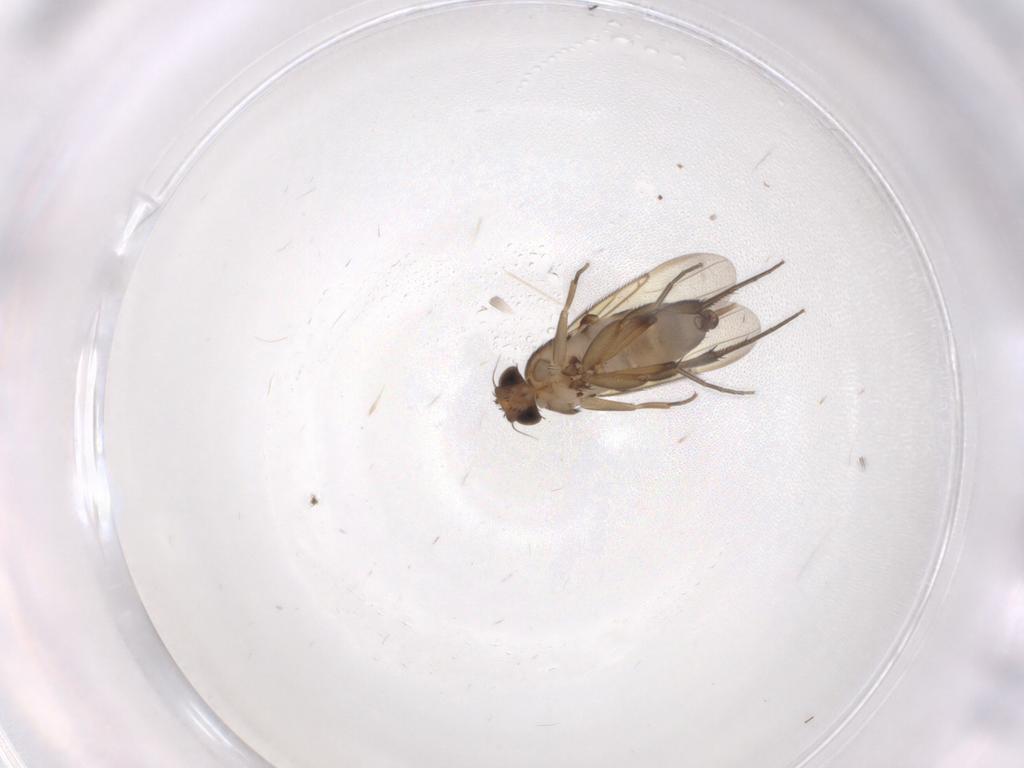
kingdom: Animalia
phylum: Arthropoda
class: Insecta
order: Diptera
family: Phoridae
